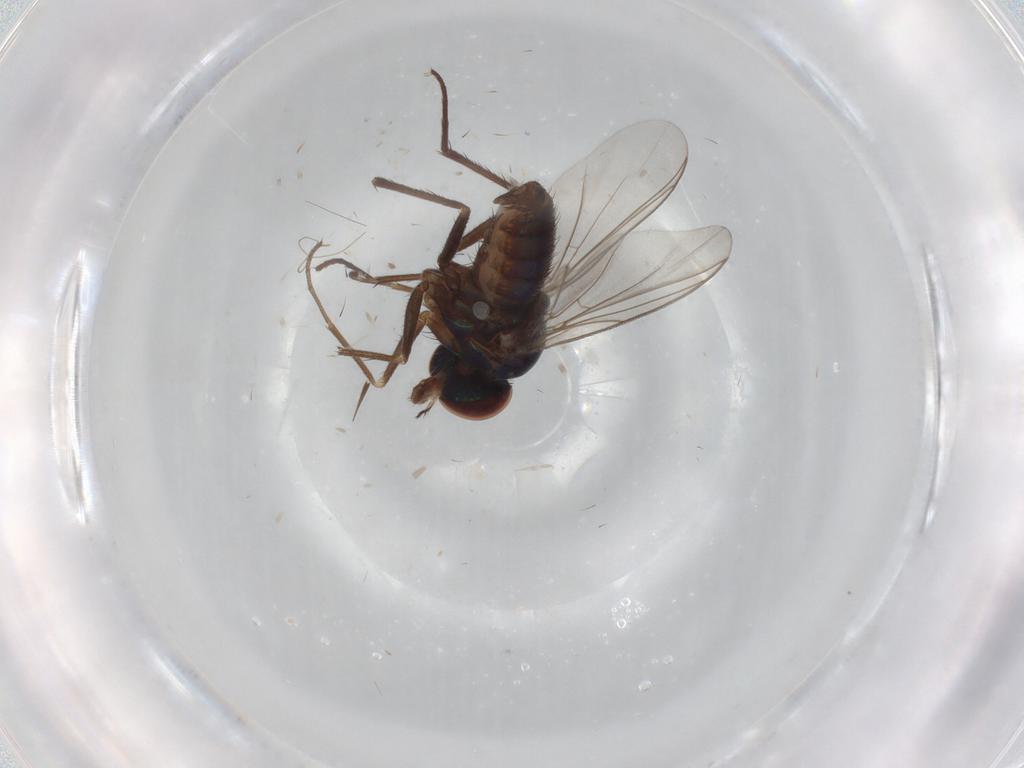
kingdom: Animalia
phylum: Arthropoda
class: Insecta
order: Diptera
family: Dolichopodidae
